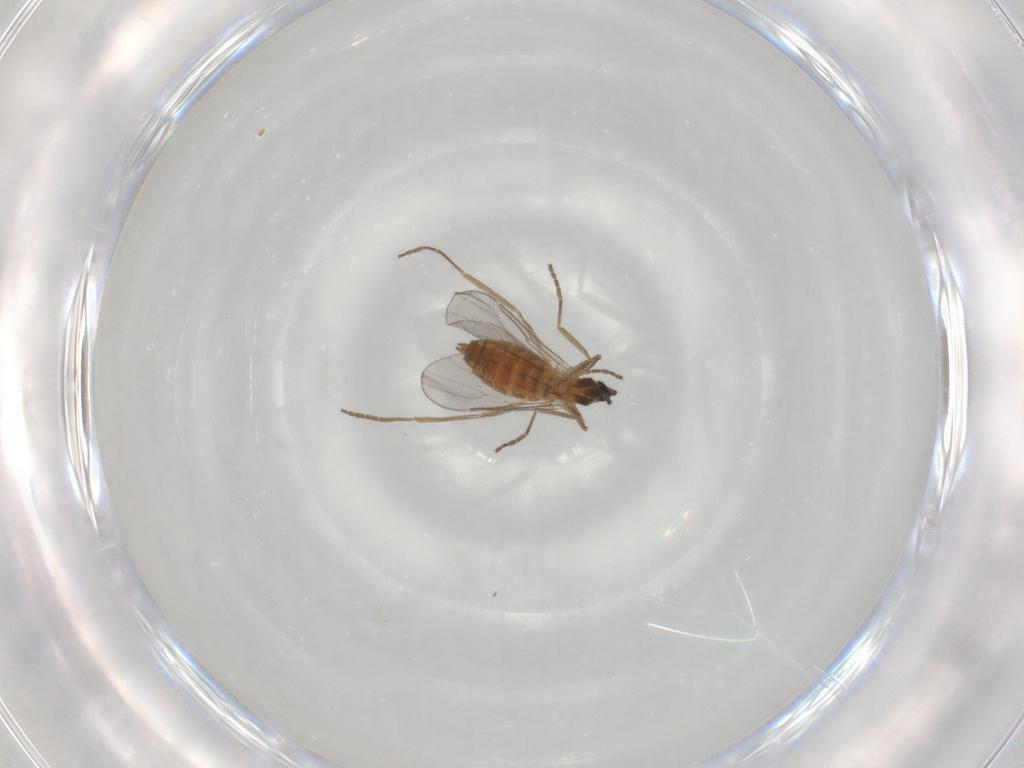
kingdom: Animalia
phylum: Arthropoda
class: Insecta
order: Diptera
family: Cecidomyiidae
